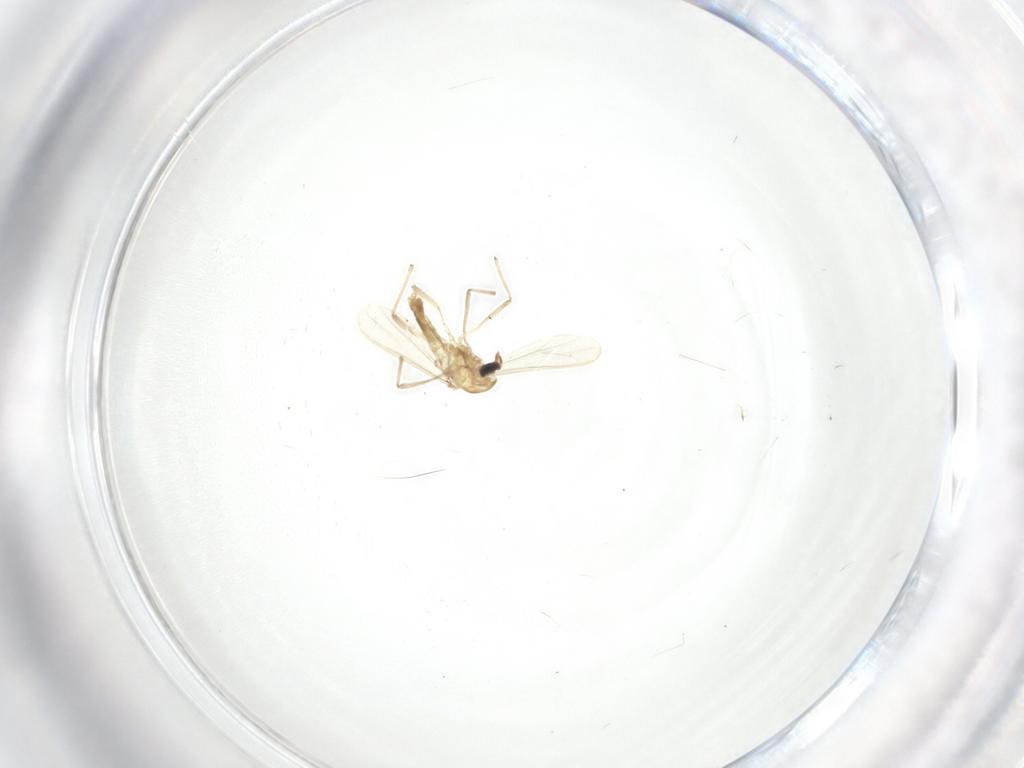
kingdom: Animalia
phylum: Arthropoda
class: Insecta
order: Diptera
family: Chironomidae
